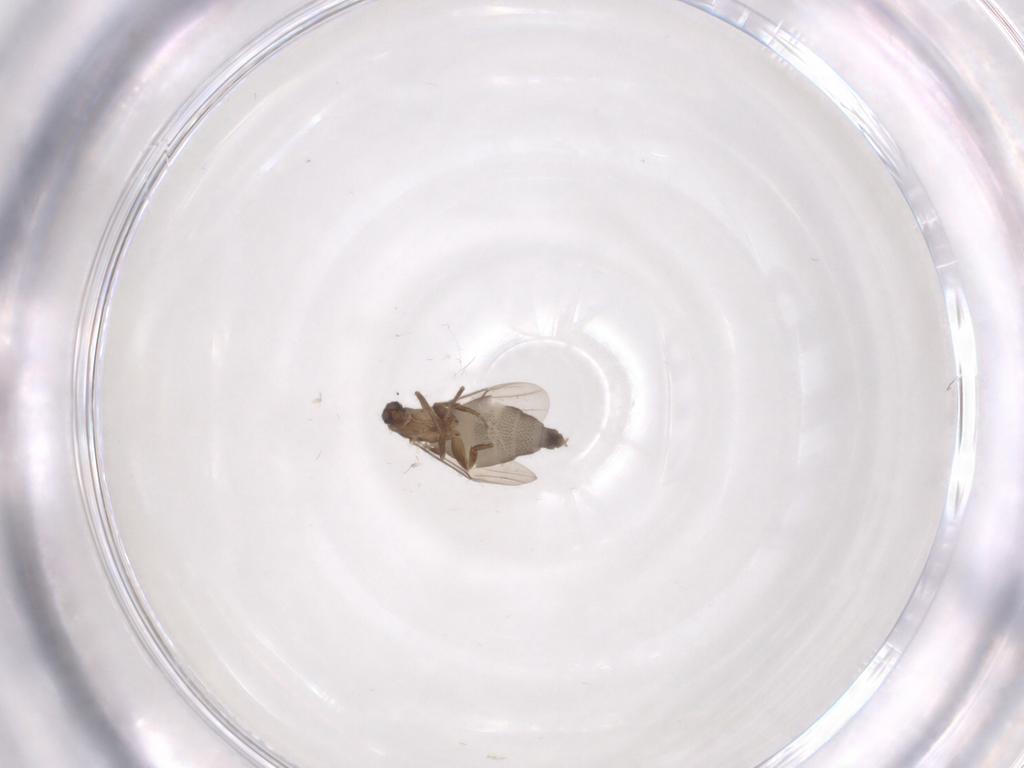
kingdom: Animalia
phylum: Arthropoda
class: Insecta
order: Diptera
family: Phoridae
